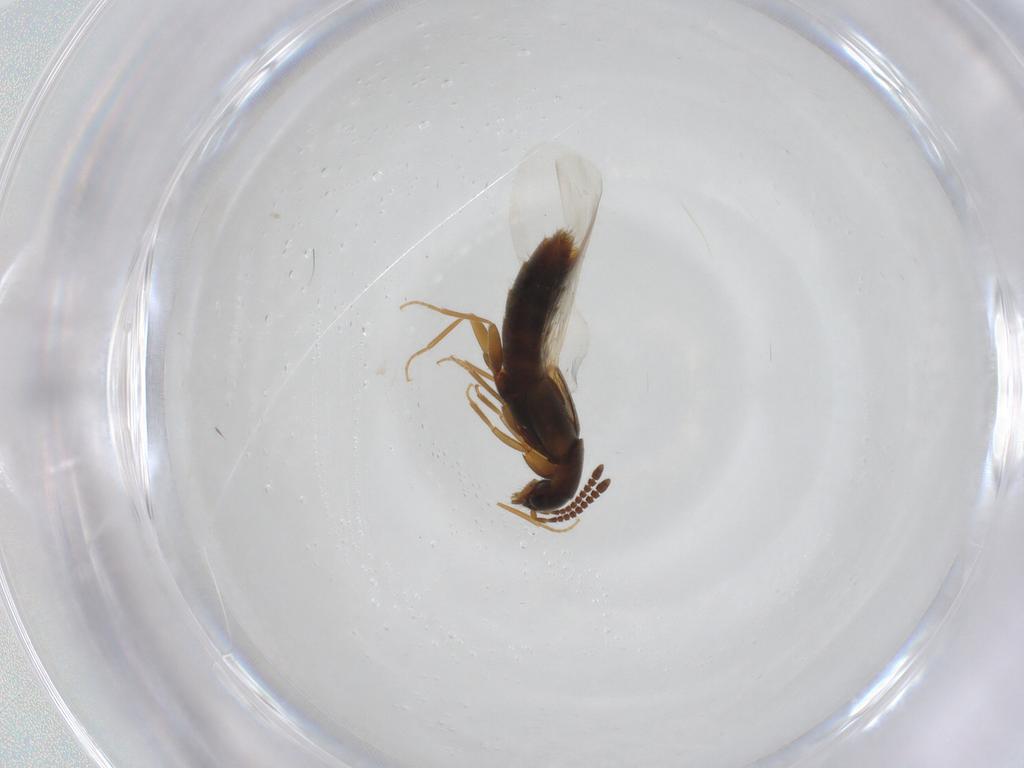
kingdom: Animalia
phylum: Arthropoda
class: Insecta
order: Coleoptera
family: Staphylinidae
